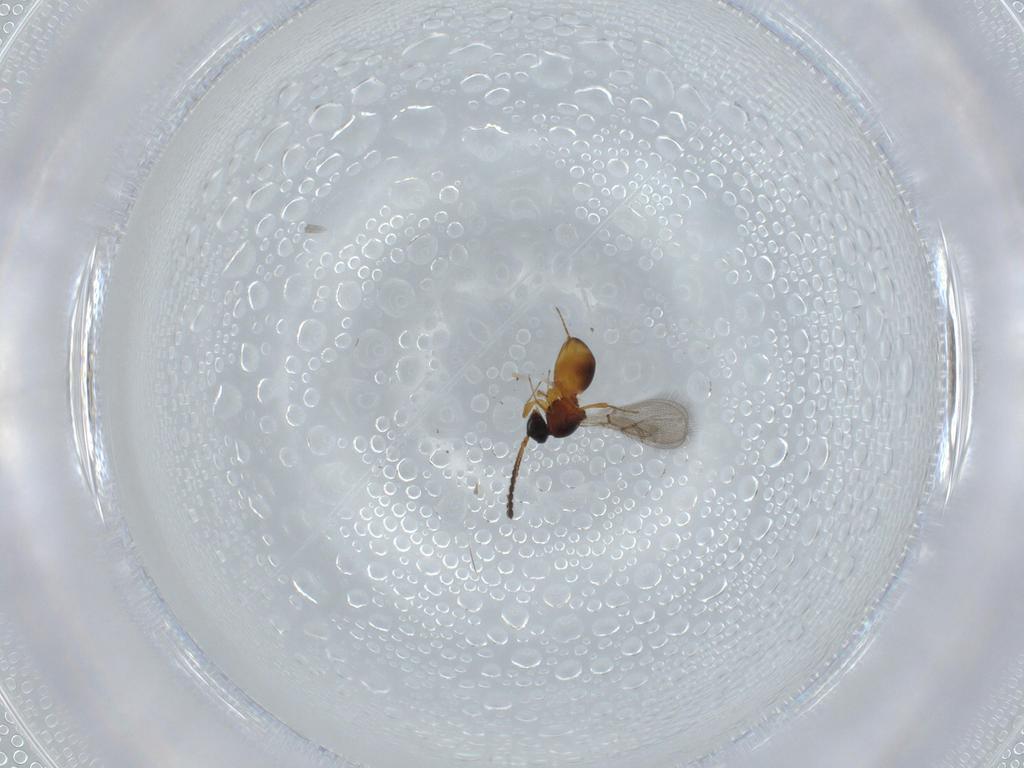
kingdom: Animalia
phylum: Arthropoda
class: Insecta
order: Hymenoptera
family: Figitidae
